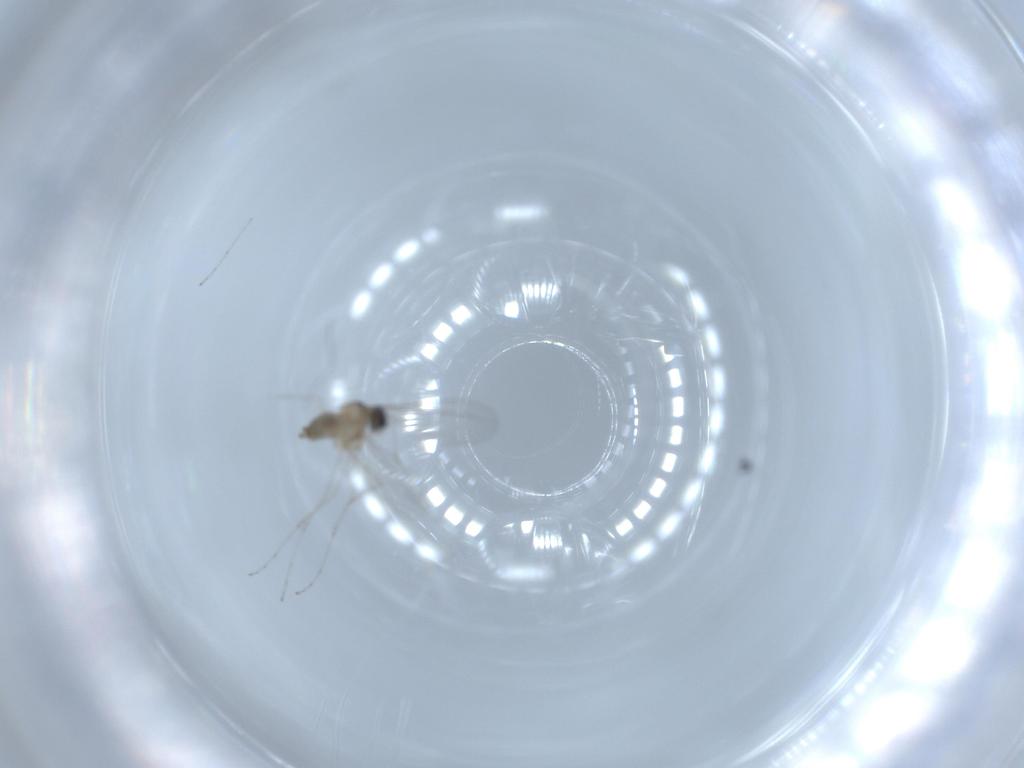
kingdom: Animalia
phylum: Arthropoda
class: Insecta
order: Diptera
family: Cecidomyiidae
